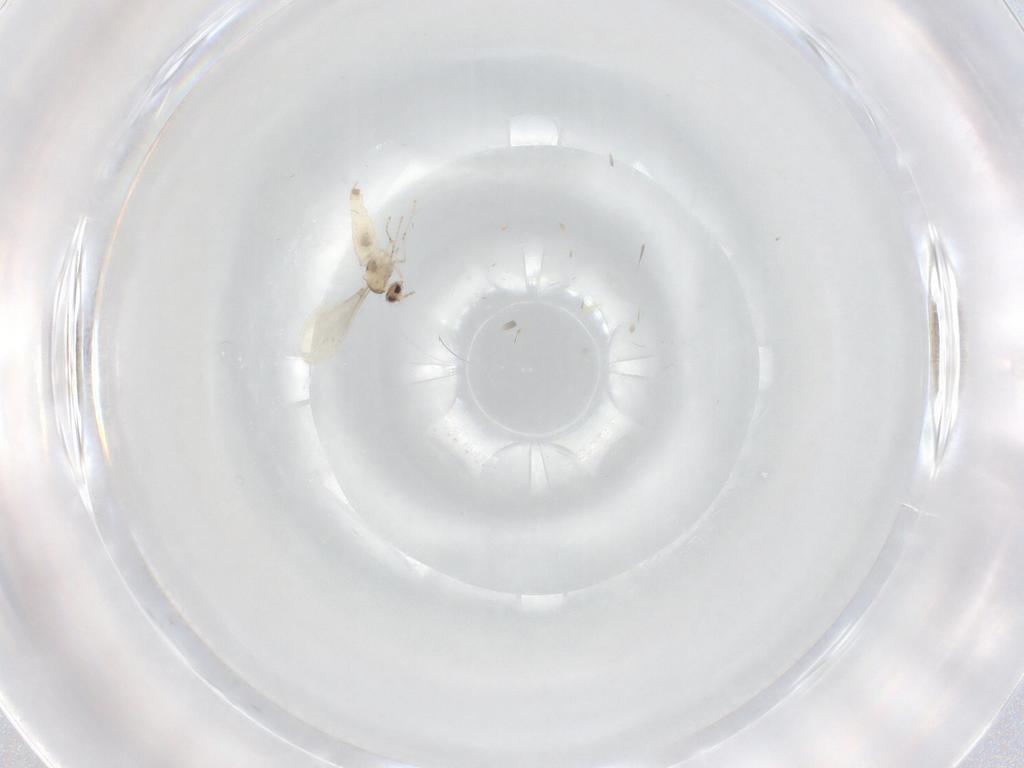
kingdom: Animalia
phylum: Arthropoda
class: Insecta
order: Diptera
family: Cecidomyiidae
